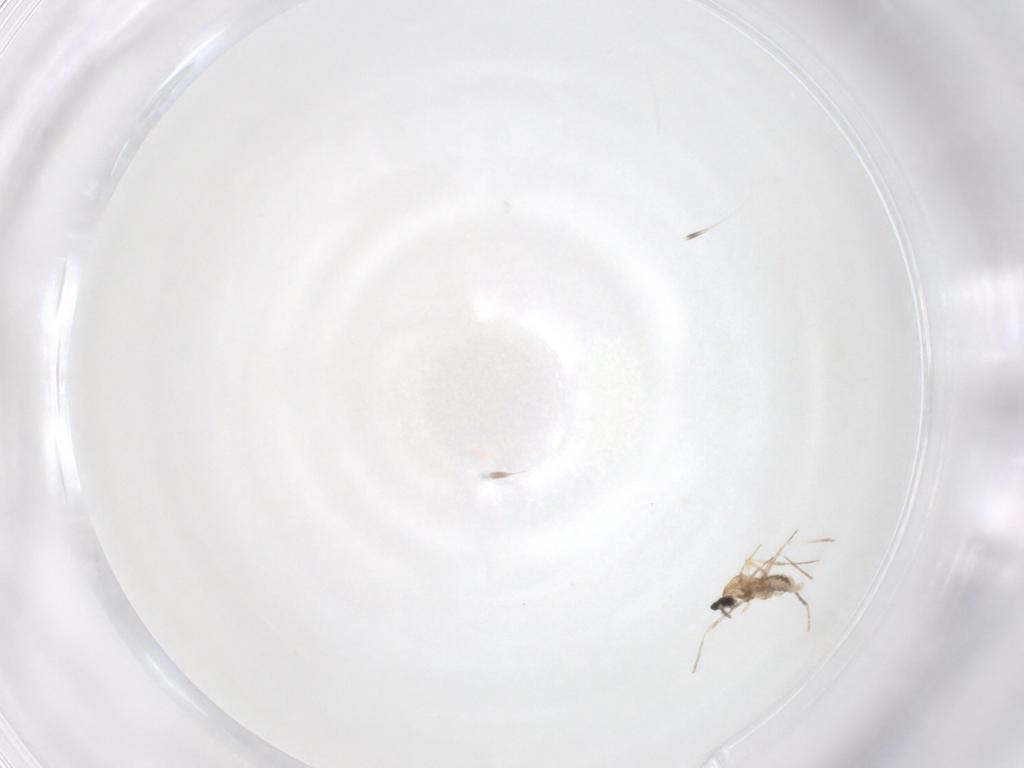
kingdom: Animalia
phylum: Arthropoda
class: Insecta
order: Diptera
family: Cecidomyiidae
